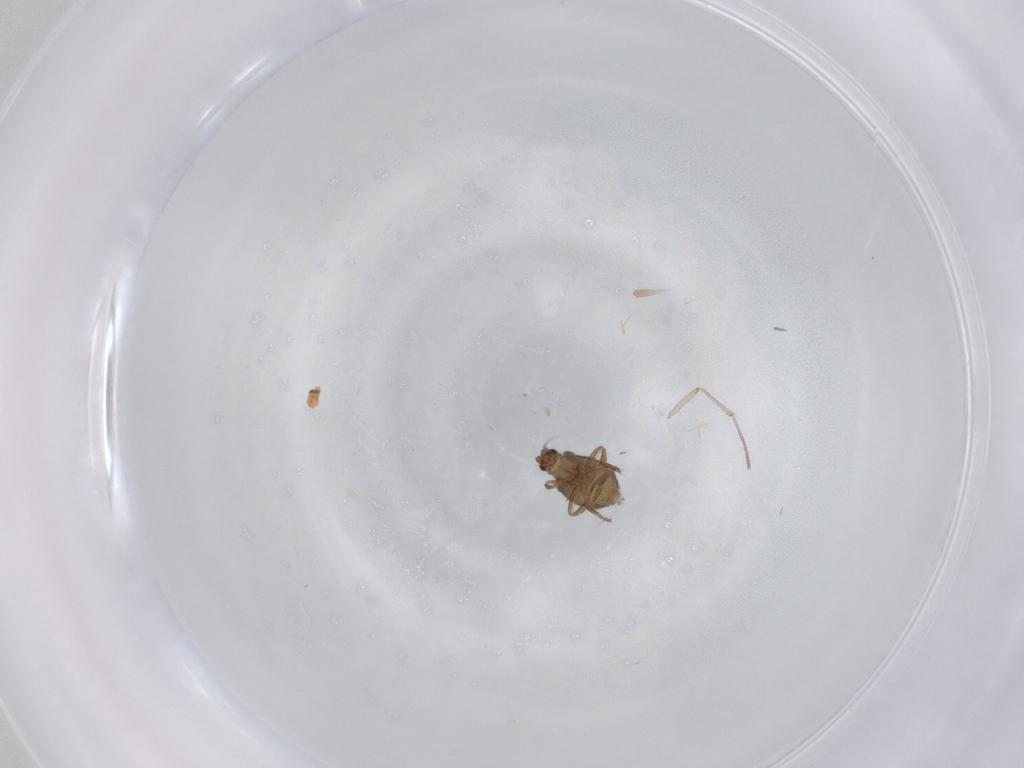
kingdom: Animalia
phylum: Arthropoda
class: Insecta
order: Diptera
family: Phoridae
